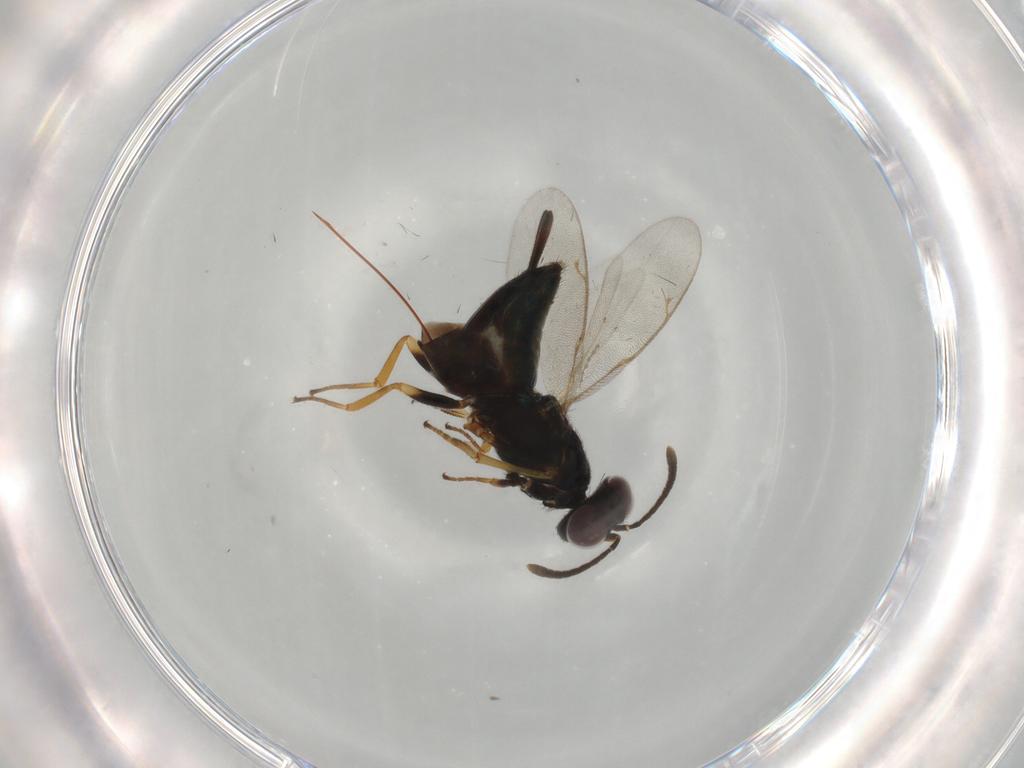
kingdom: Animalia
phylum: Arthropoda
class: Insecta
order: Hymenoptera
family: Eupelmidae
